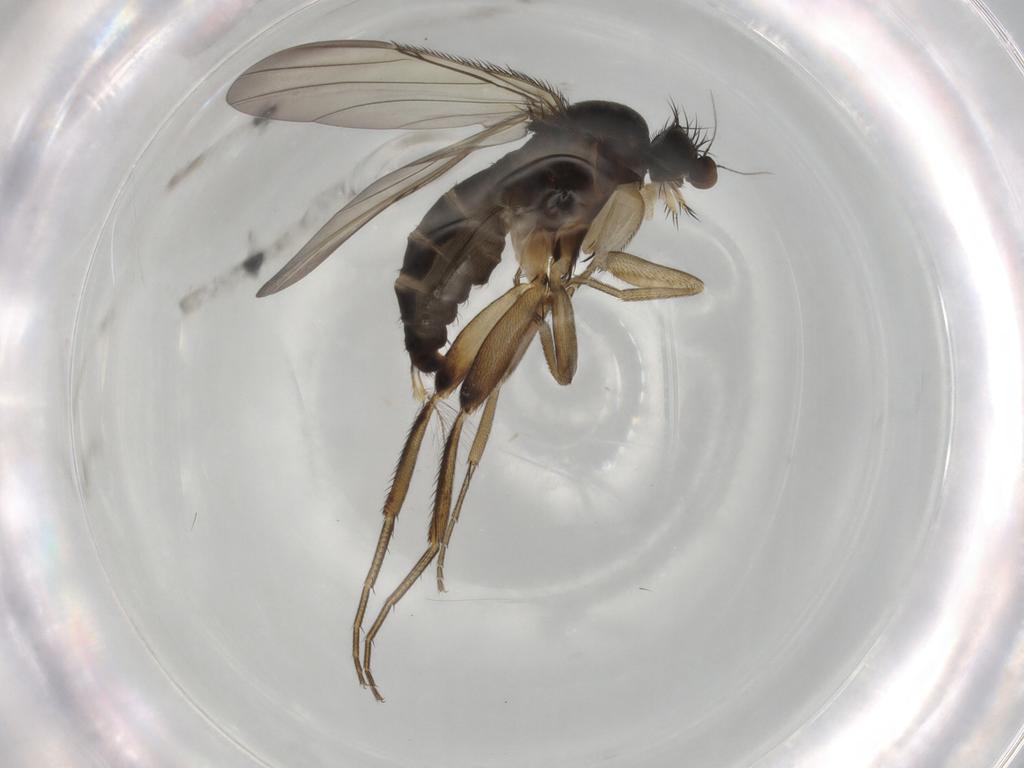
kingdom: Animalia
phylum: Arthropoda
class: Insecta
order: Diptera
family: Phoridae
